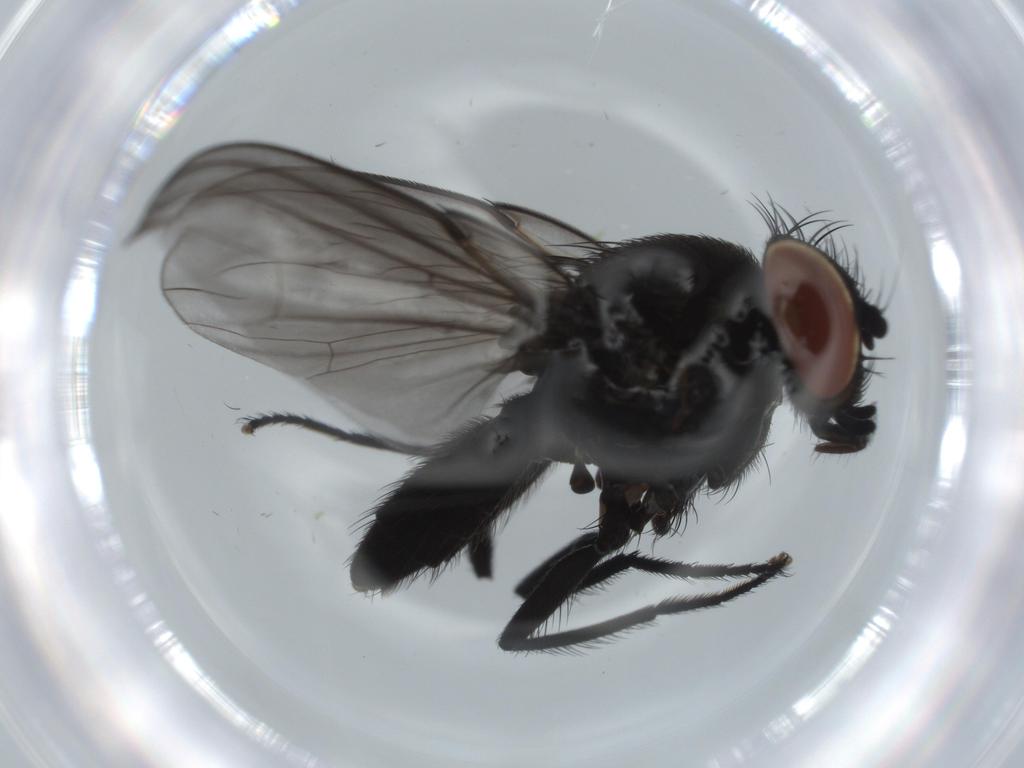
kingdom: Animalia
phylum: Arthropoda
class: Insecta
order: Diptera
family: Milichiidae
